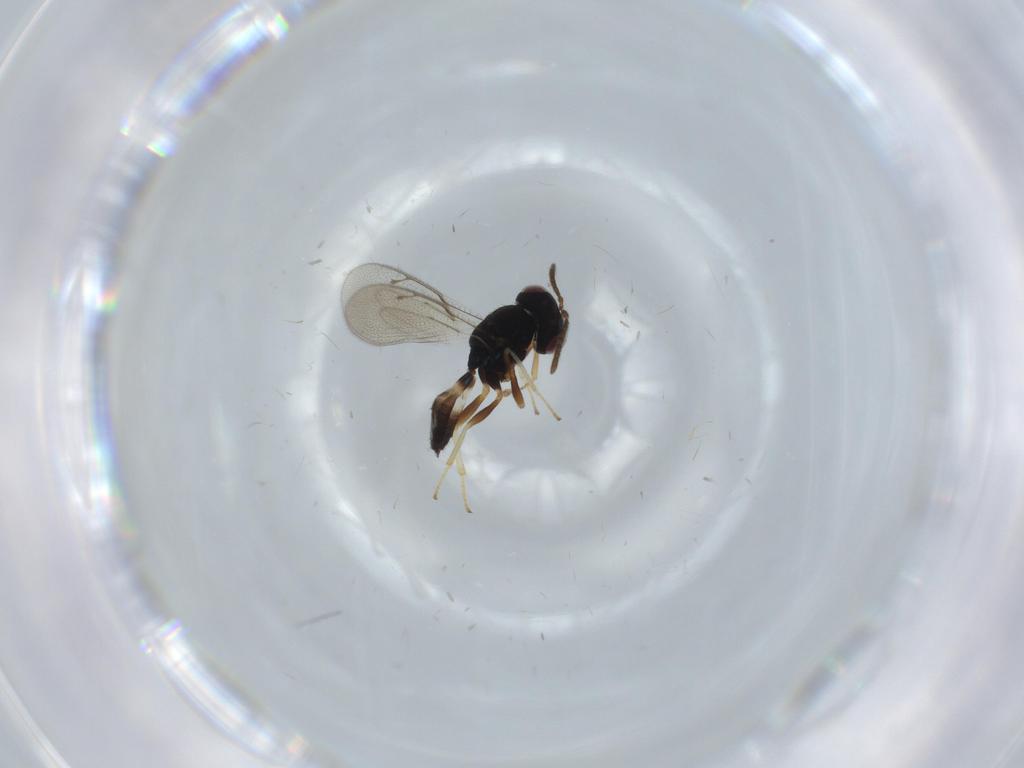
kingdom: Animalia
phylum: Arthropoda
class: Insecta
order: Hymenoptera
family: Pteromalidae
